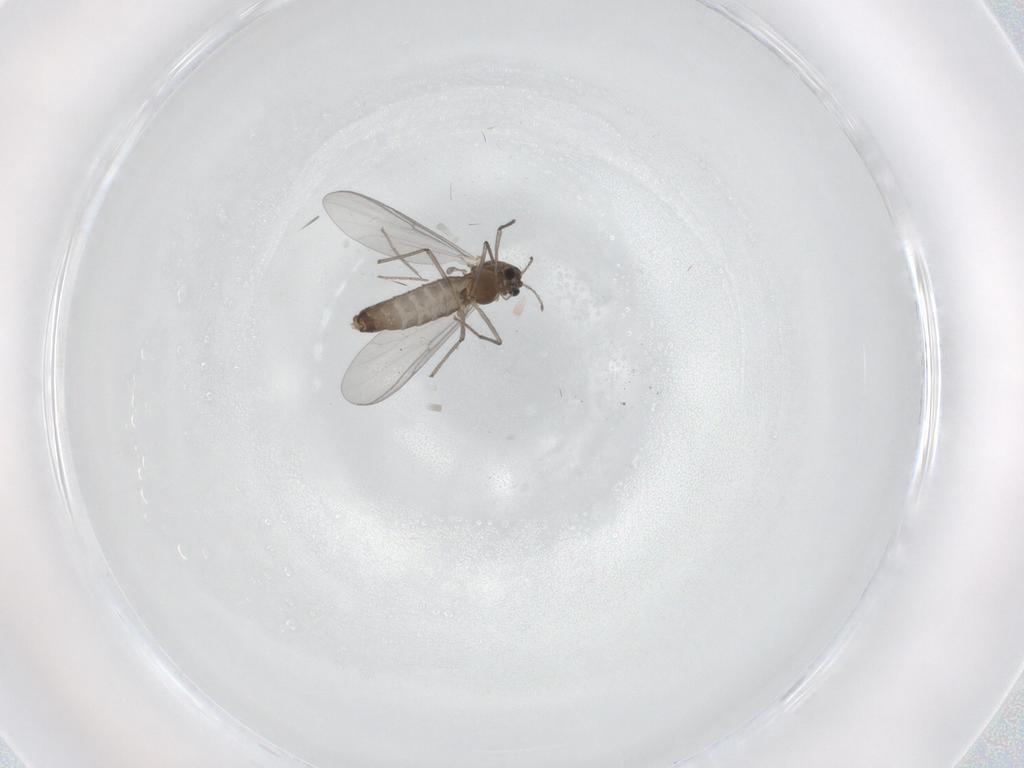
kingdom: Animalia
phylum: Arthropoda
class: Insecta
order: Diptera
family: Chironomidae
